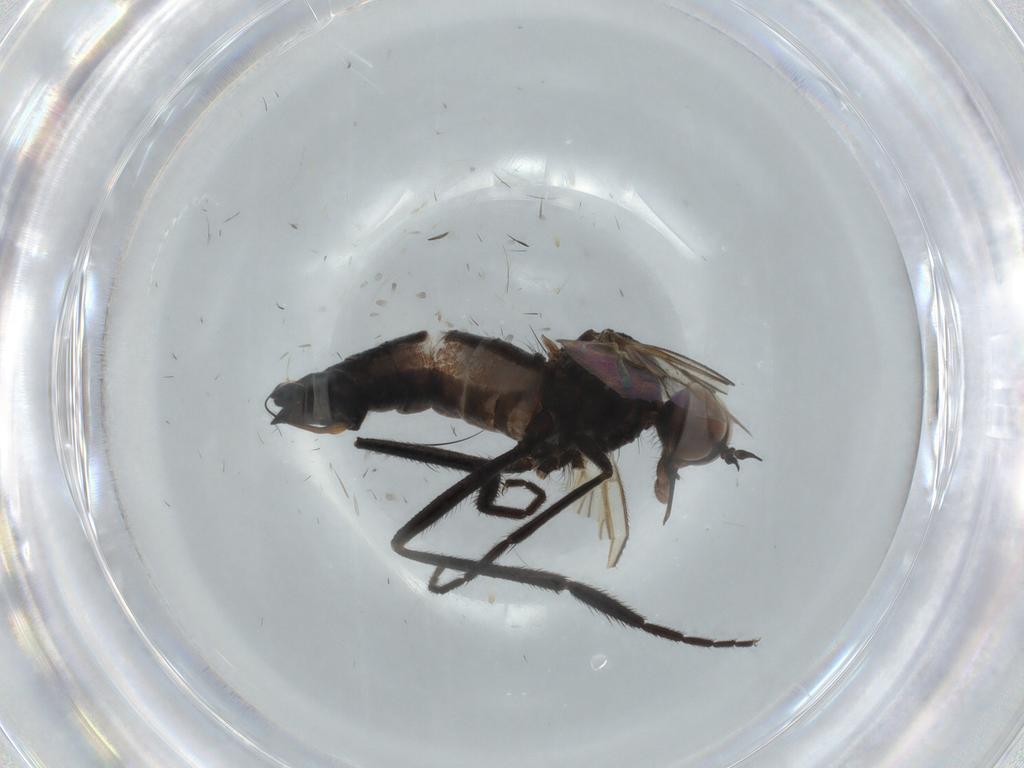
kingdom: Animalia
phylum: Arthropoda
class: Insecta
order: Diptera
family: Empididae
